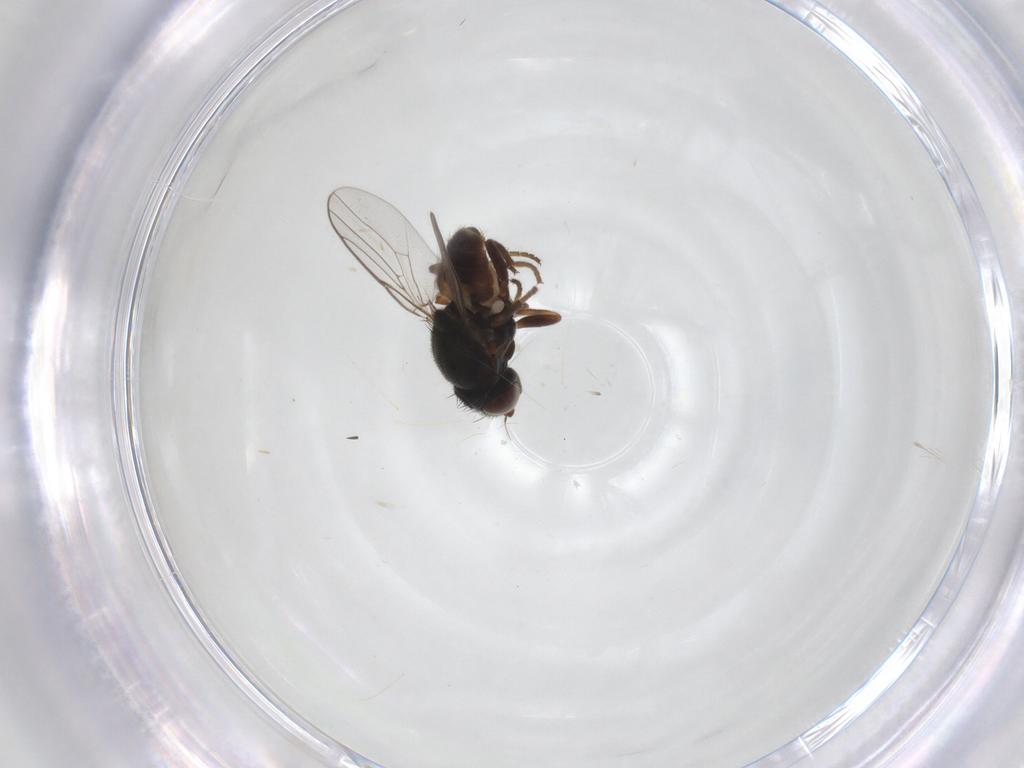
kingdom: Animalia
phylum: Arthropoda
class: Insecta
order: Diptera
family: Chloropidae
